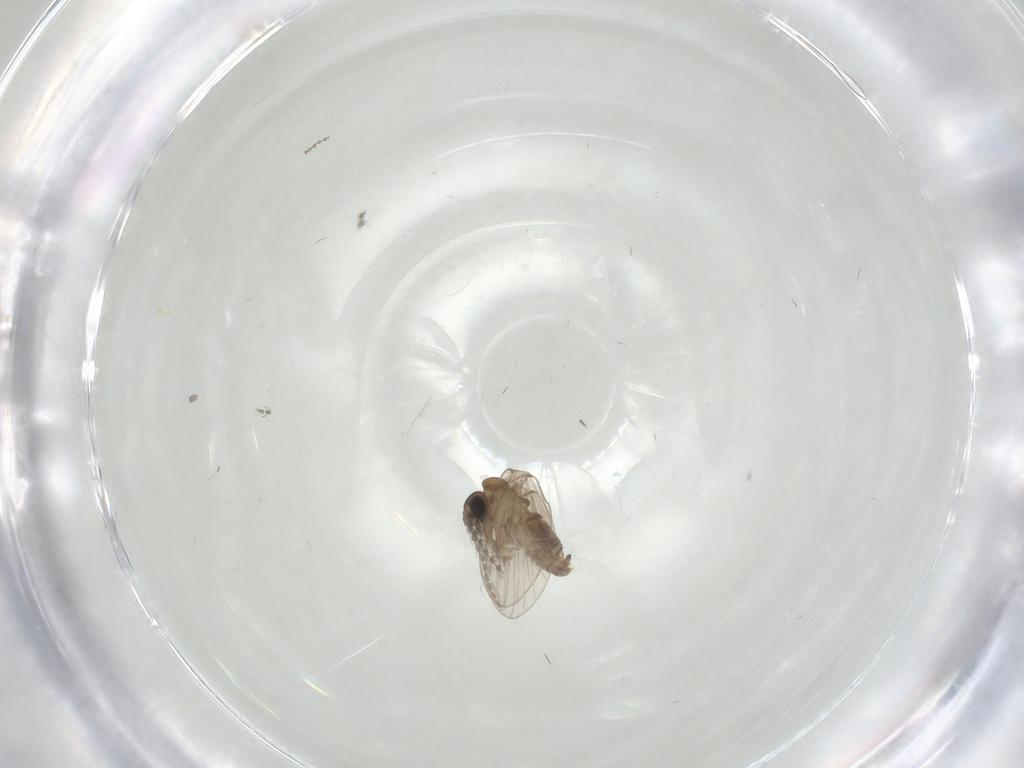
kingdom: Animalia
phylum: Arthropoda
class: Insecta
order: Diptera
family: Cecidomyiidae
